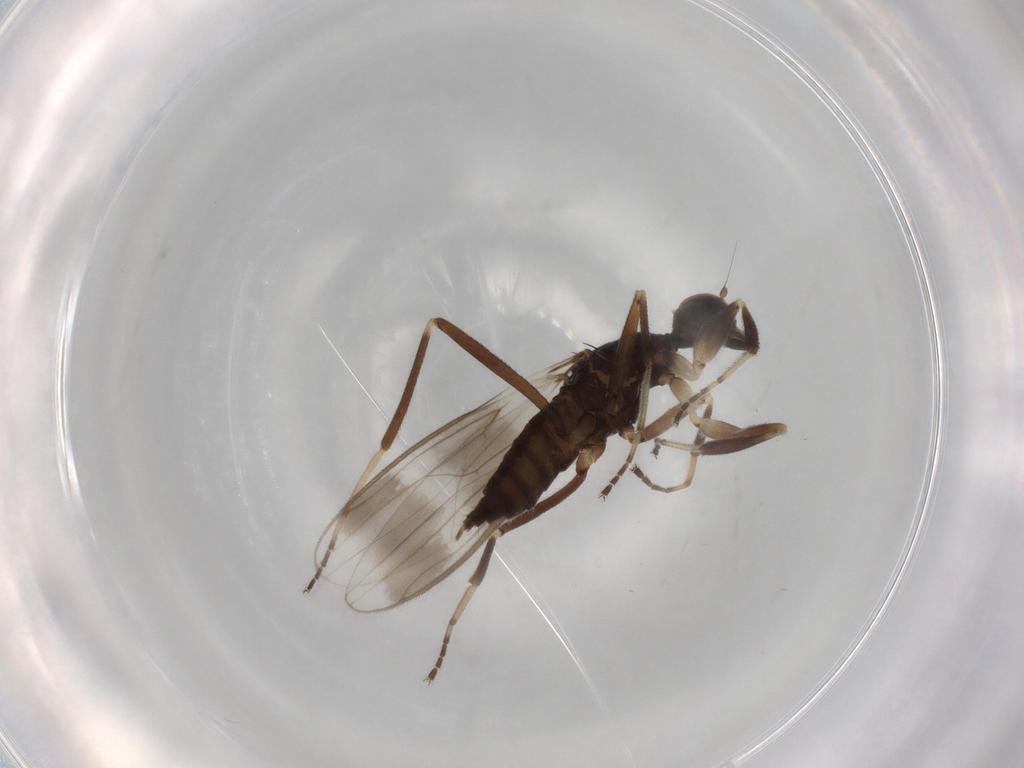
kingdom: Animalia
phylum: Arthropoda
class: Insecta
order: Diptera
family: Hybotidae
